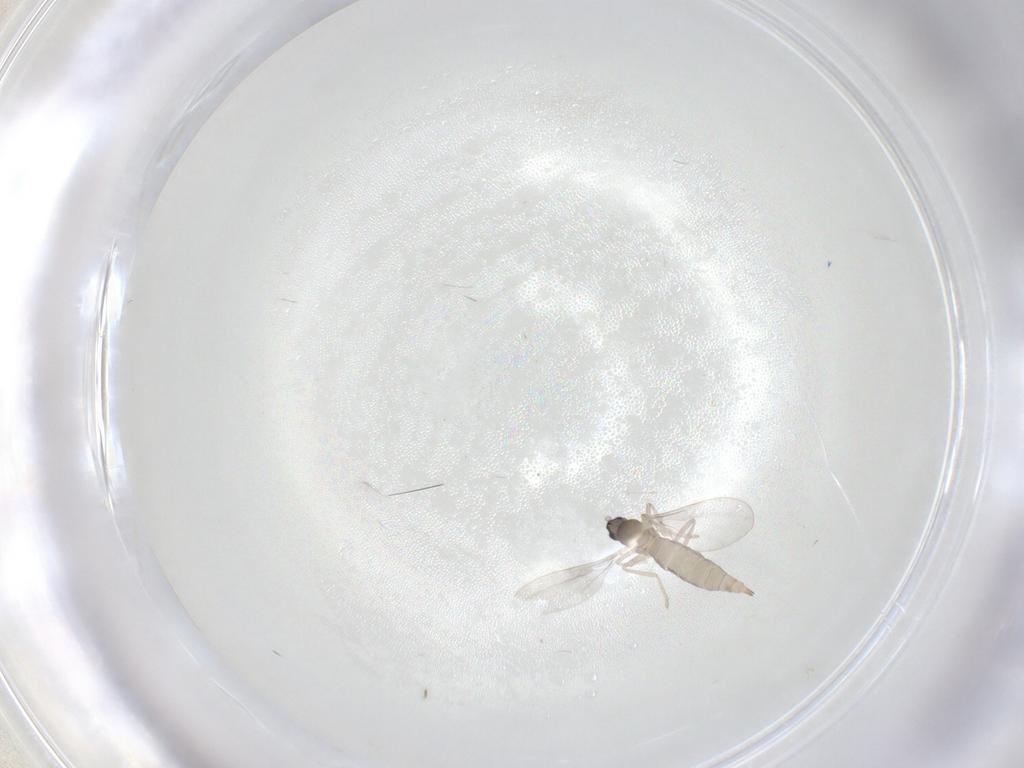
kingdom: Animalia
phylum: Arthropoda
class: Insecta
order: Diptera
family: Cecidomyiidae
